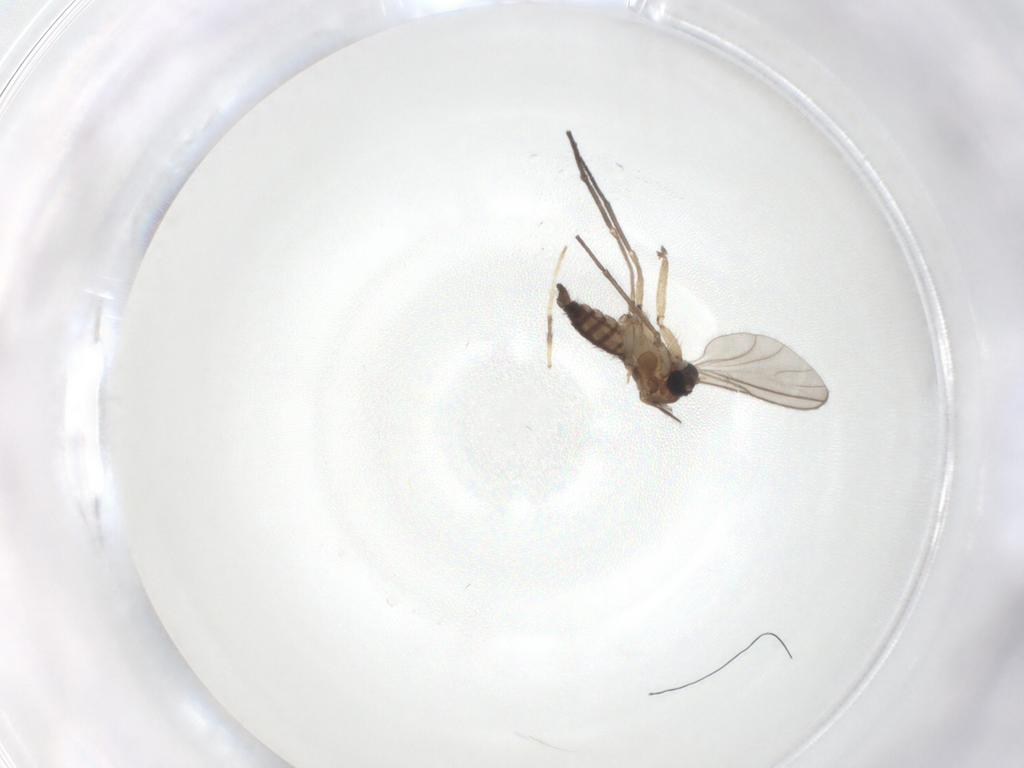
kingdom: Animalia
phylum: Arthropoda
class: Insecta
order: Diptera
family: Chironomidae
